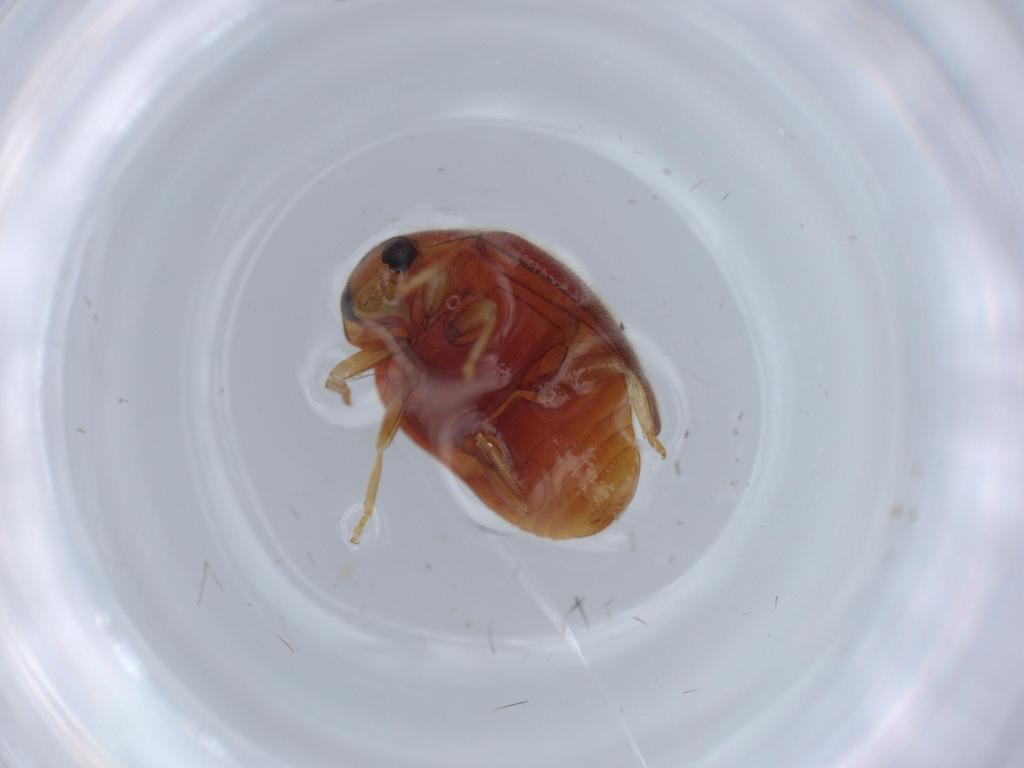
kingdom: Animalia
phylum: Arthropoda
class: Insecta
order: Coleoptera
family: Coccinellidae
